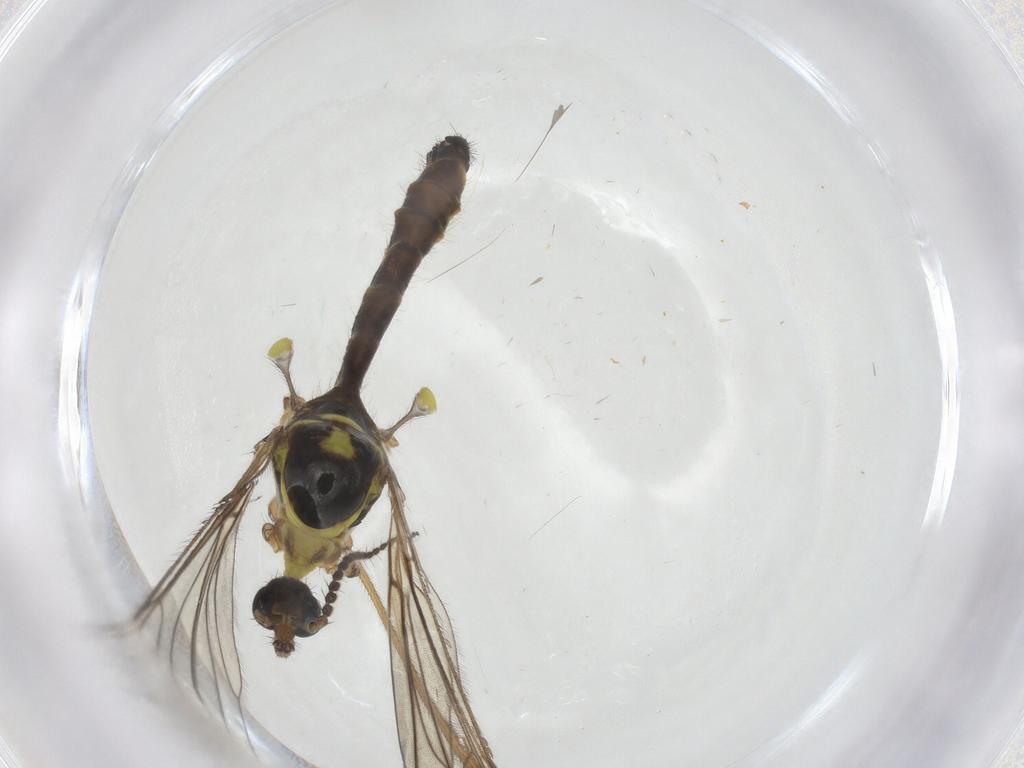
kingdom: Animalia
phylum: Arthropoda
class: Insecta
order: Diptera
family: Limoniidae
